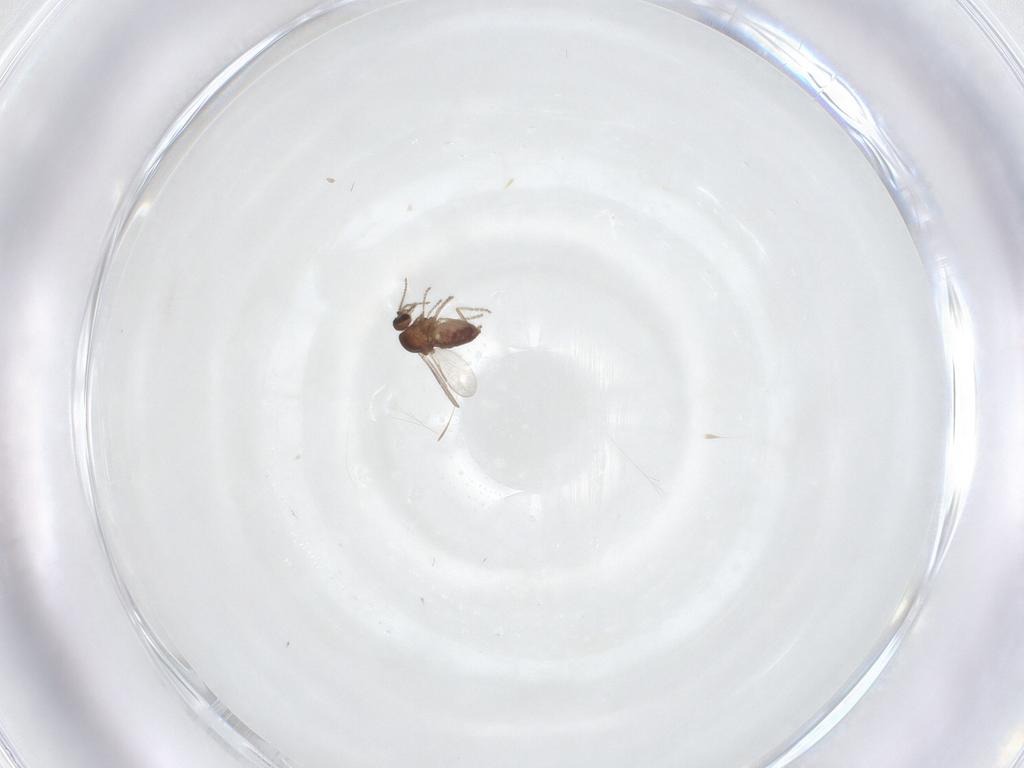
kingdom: Animalia
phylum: Arthropoda
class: Insecta
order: Diptera
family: Ceratopogonidae
